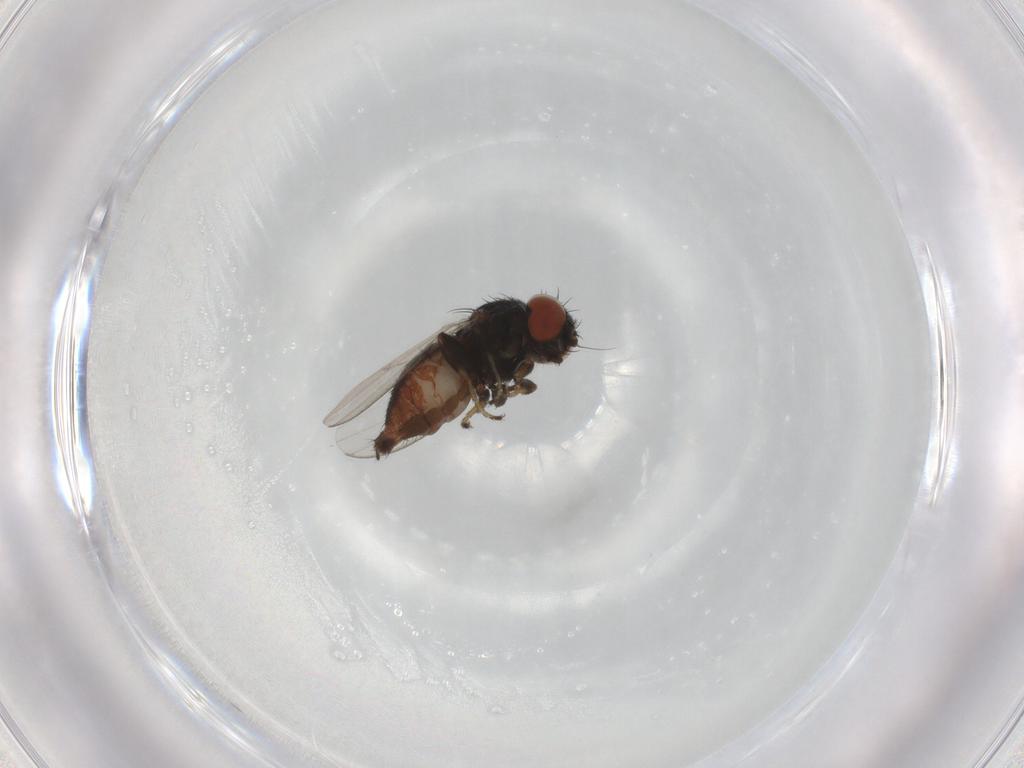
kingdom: Animalia
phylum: Arthropoda
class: Insecta
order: Diptera
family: Milichiidae
